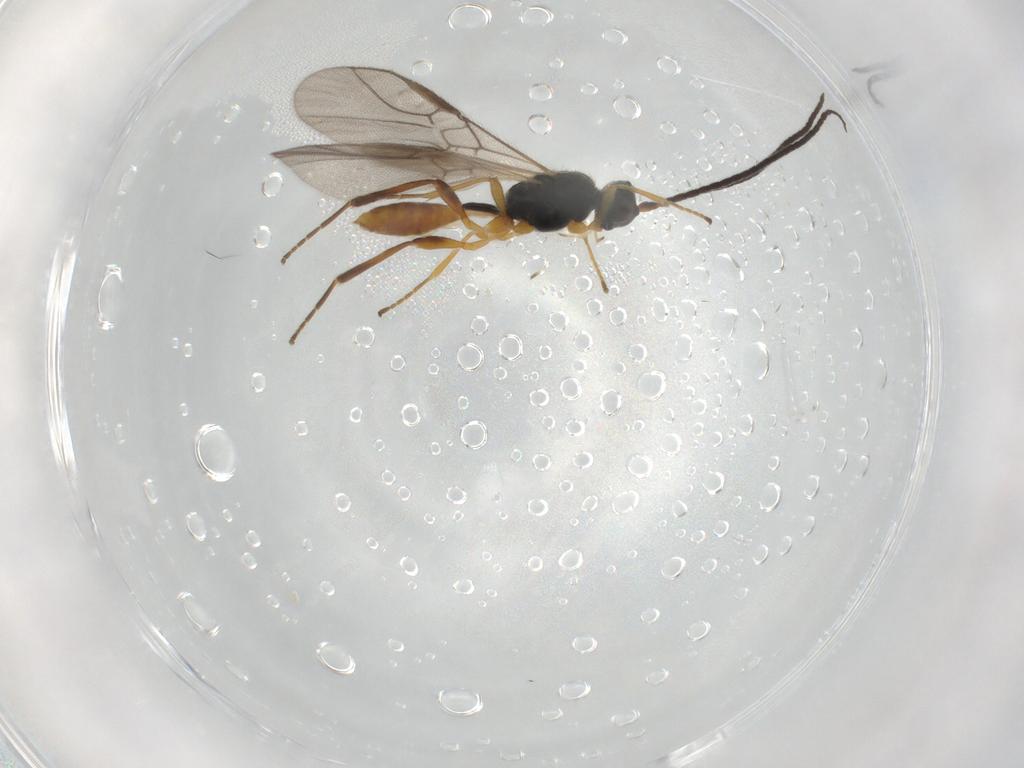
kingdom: Animalia
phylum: Arthropoda
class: Insecta
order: Hymenoptera
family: Braconidae
